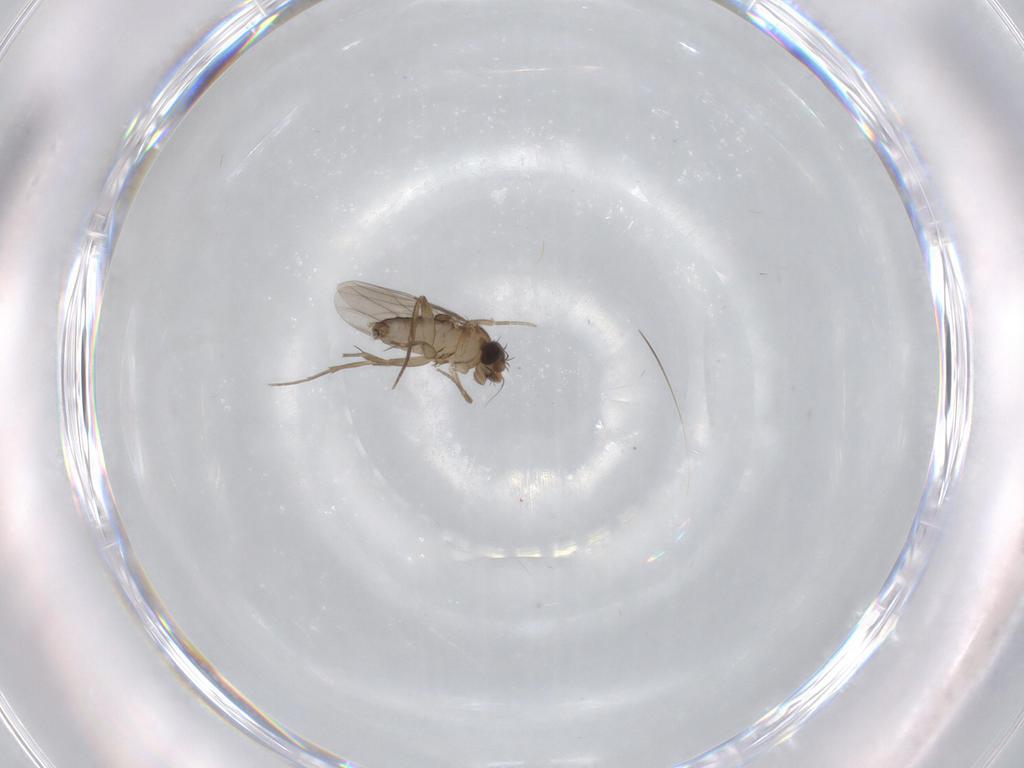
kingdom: Animalia
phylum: Arthropoda
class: Insecta
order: Diptera
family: Phoridae
